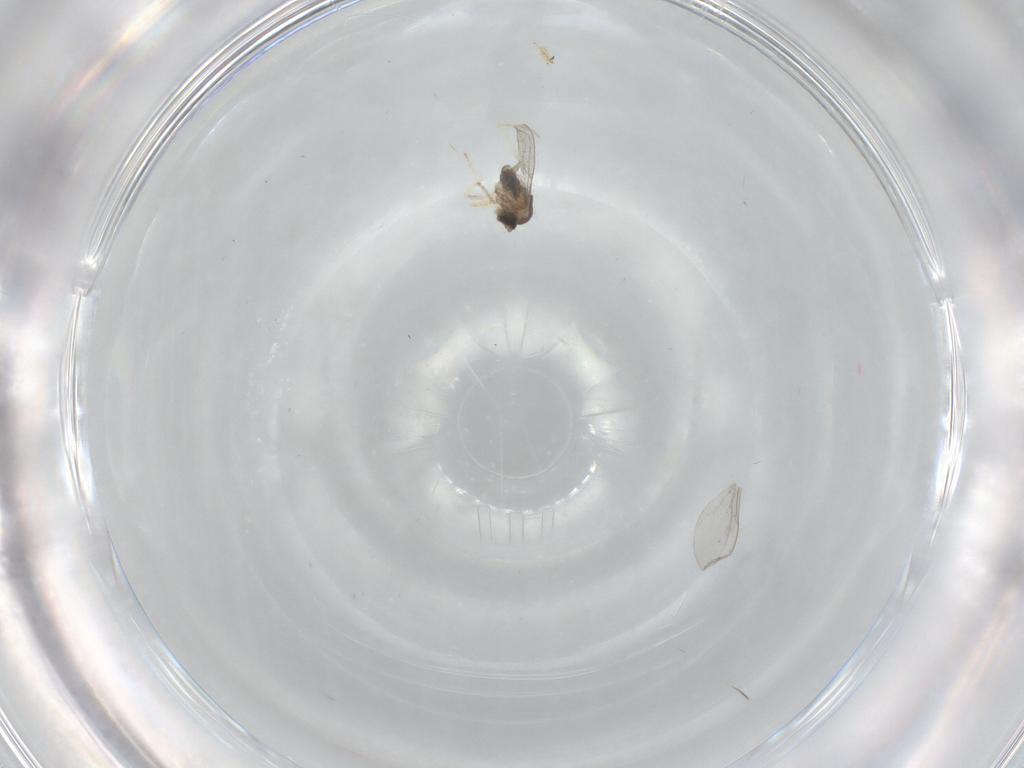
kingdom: Animalia
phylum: Arthropoda
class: Insecta
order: Diptera
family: Cecidomyiidae
